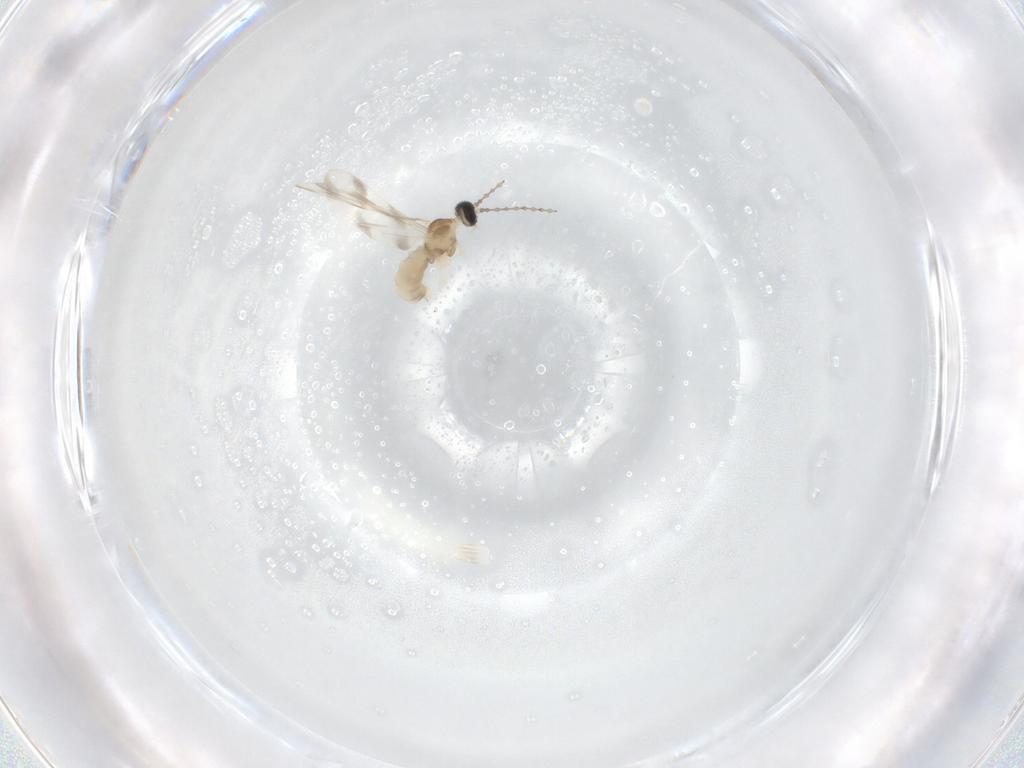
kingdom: Animalia
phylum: Arthropoda
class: Insecta
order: Diptera
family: Cecidomyiidae
